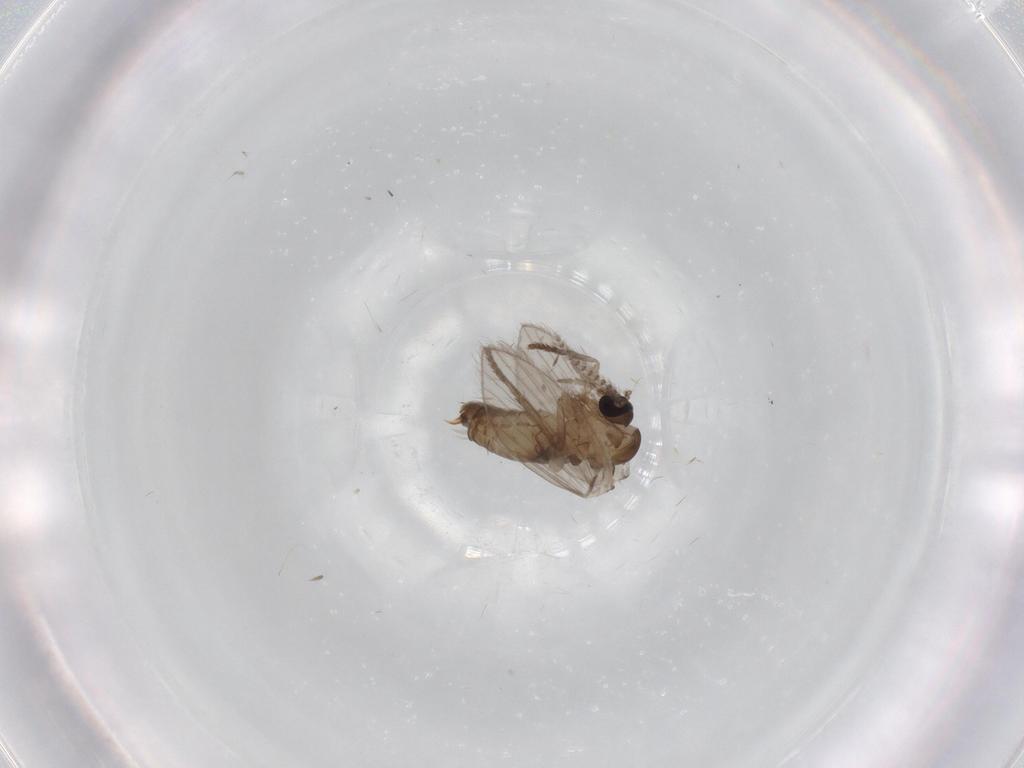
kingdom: Animalia
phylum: Arthropoda
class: Insecta
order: Diptera
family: Psychodidae
